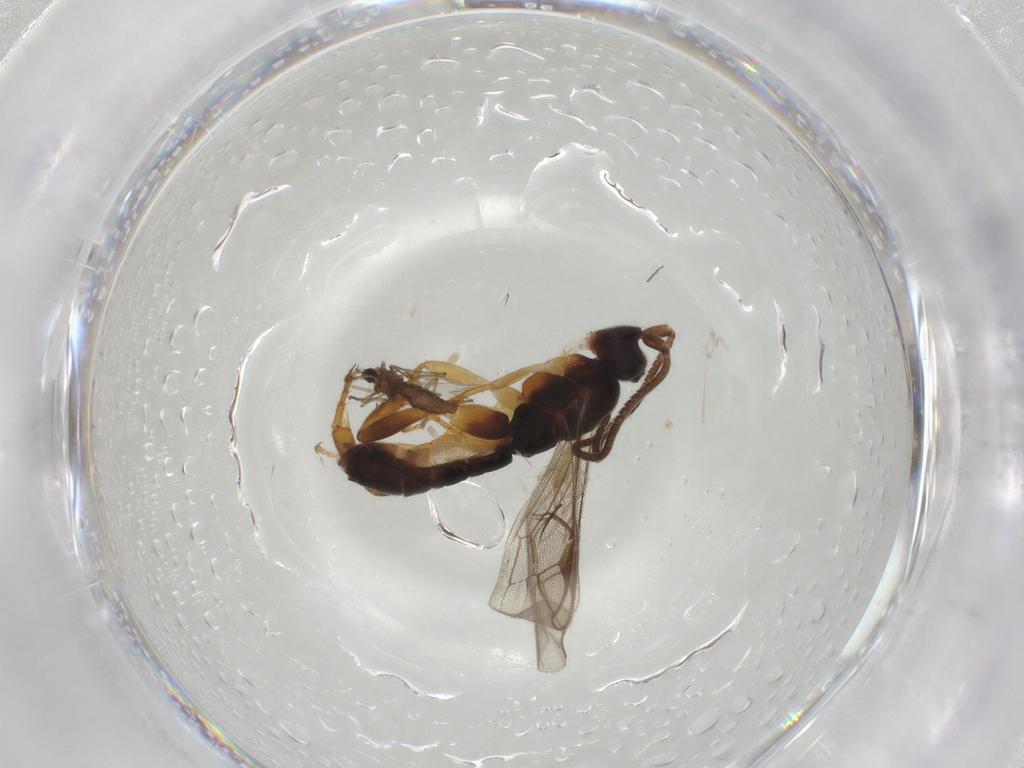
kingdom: Animalia
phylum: Arthropoda
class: Insecta
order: Hymenoptera
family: Ichneumonidae
